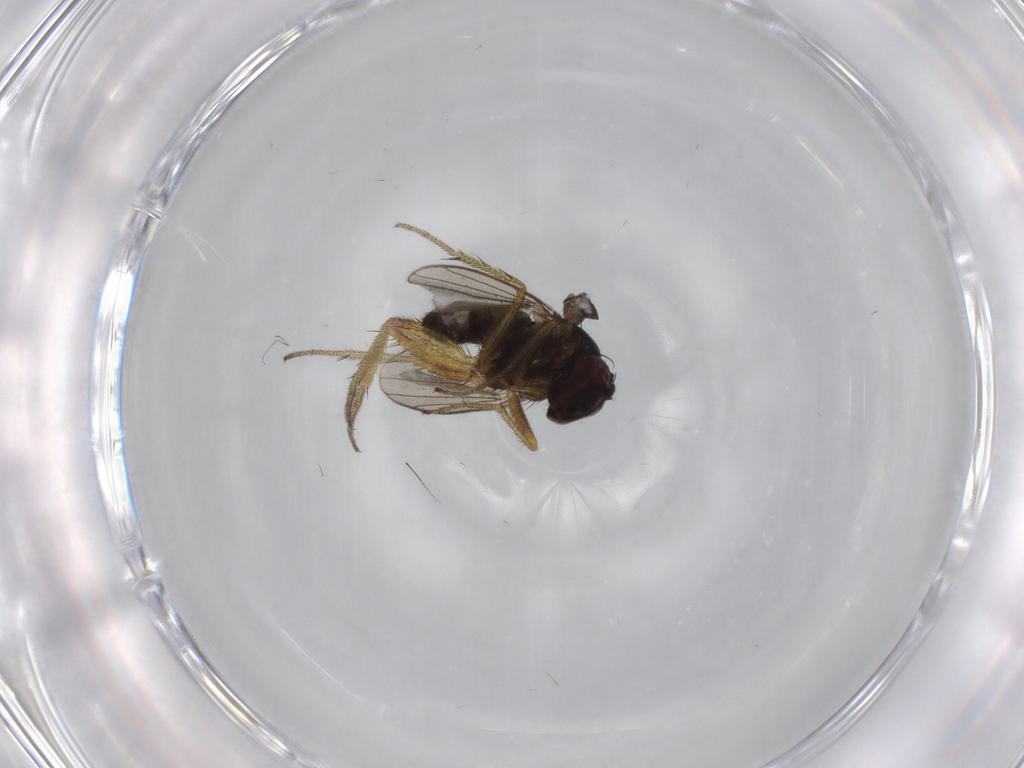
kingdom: Animalia
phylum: Arthropoda
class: Insecta
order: Diptera
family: Dolichopodidae
